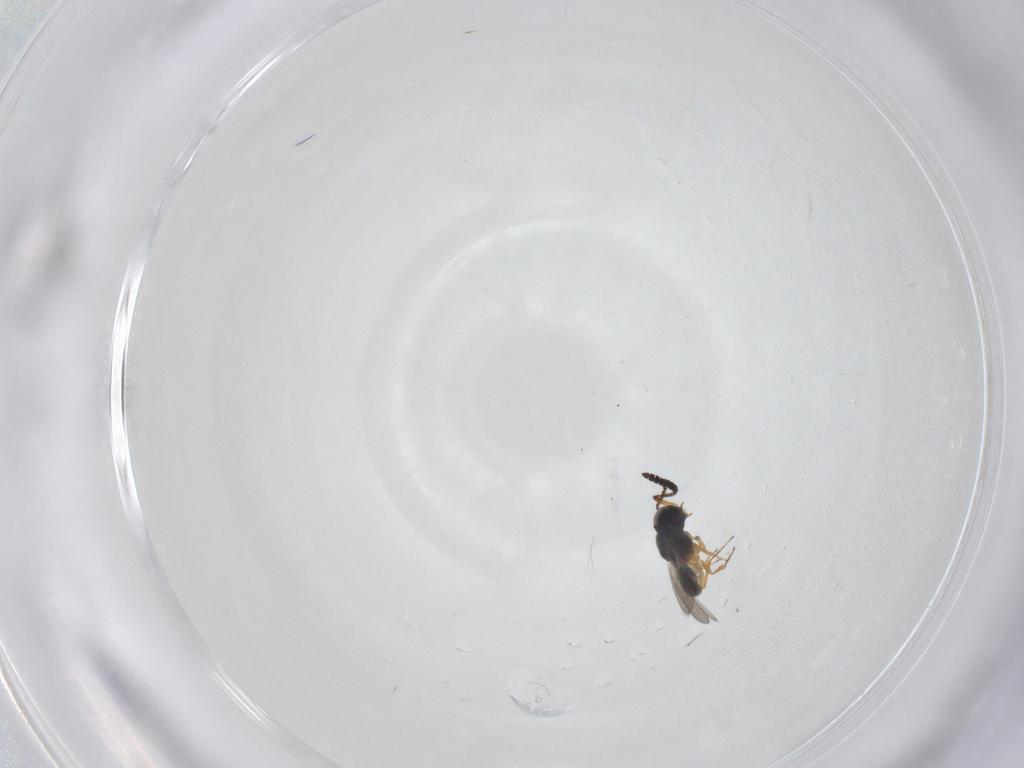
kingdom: Animalia
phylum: Arthropoda
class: Insecta
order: Hymenoptera
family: Scelionidae
